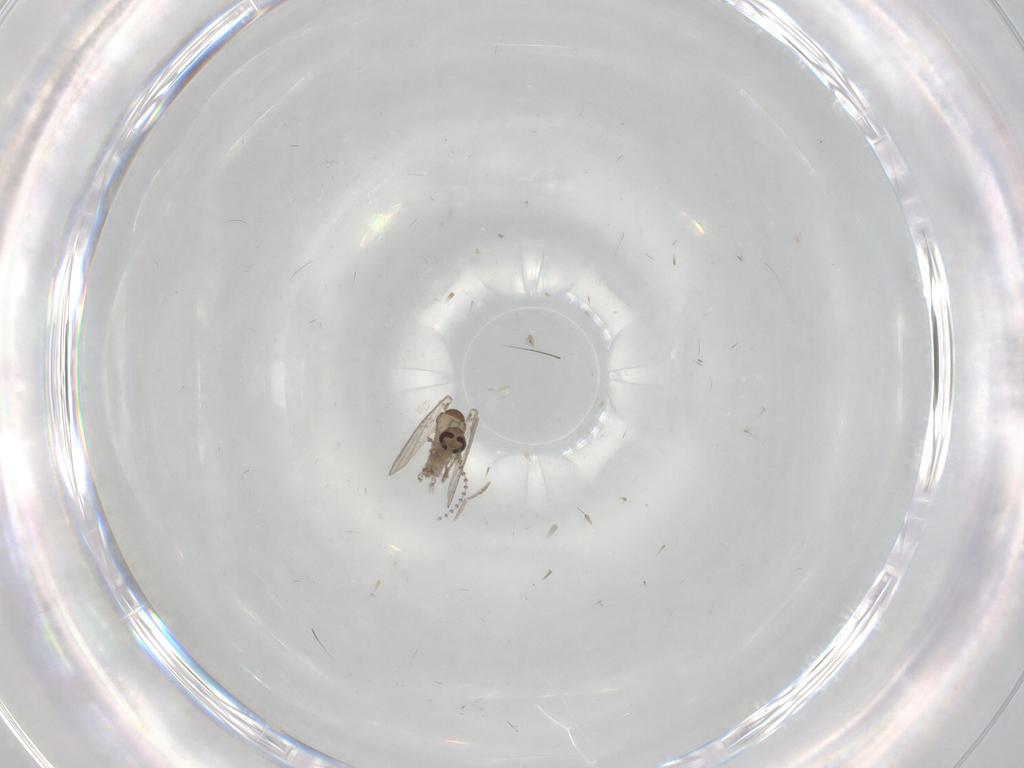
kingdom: Animalia
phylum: Arthropoda
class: Insecta
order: Diptera
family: Psychodidae
